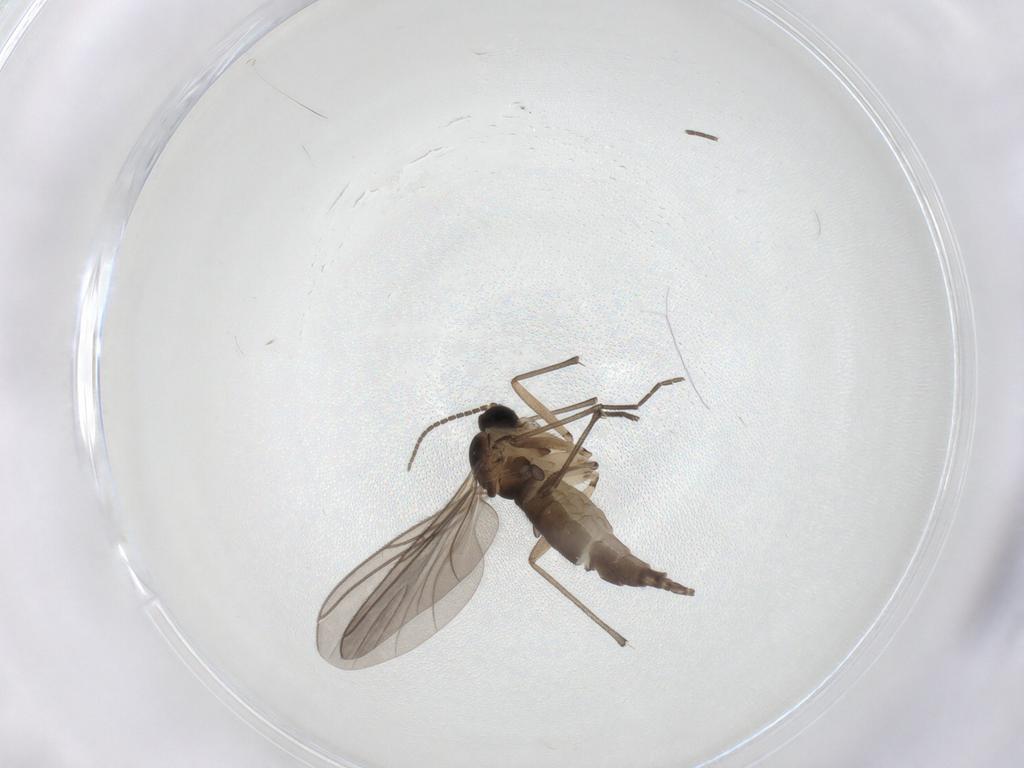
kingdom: Animalia
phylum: Arthropoda
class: Insecta
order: Diptera
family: Sciaridae
